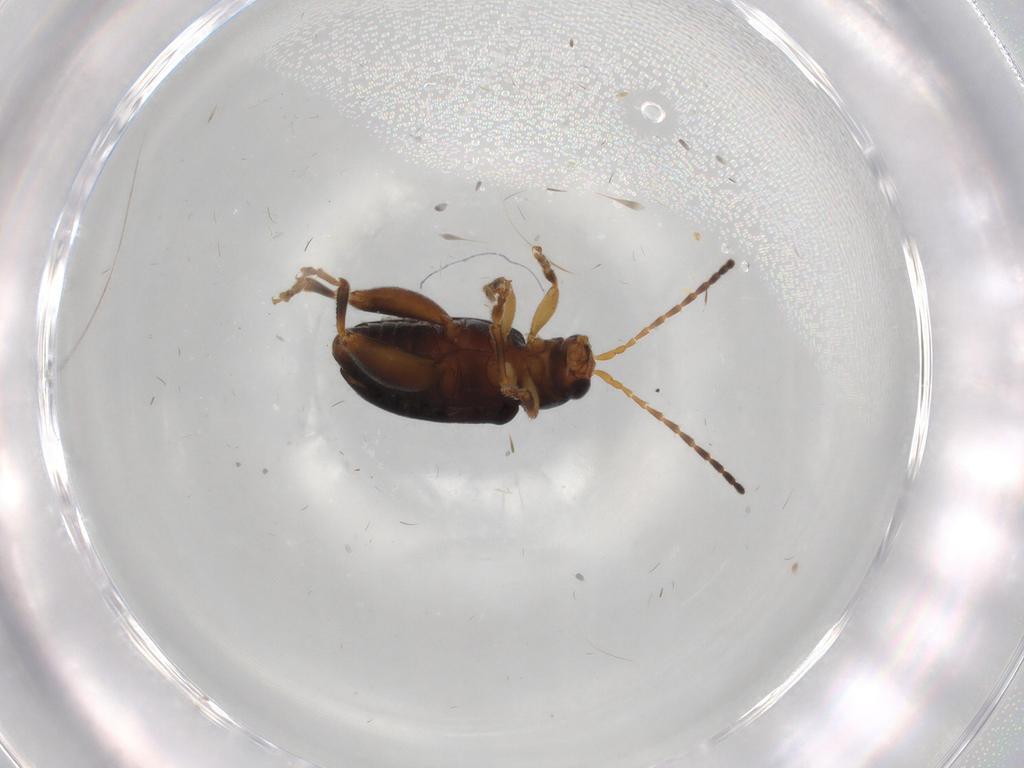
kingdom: Animalia
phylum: Arthropoda
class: Insecta
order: Coleoptera
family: Chrysomelidae
